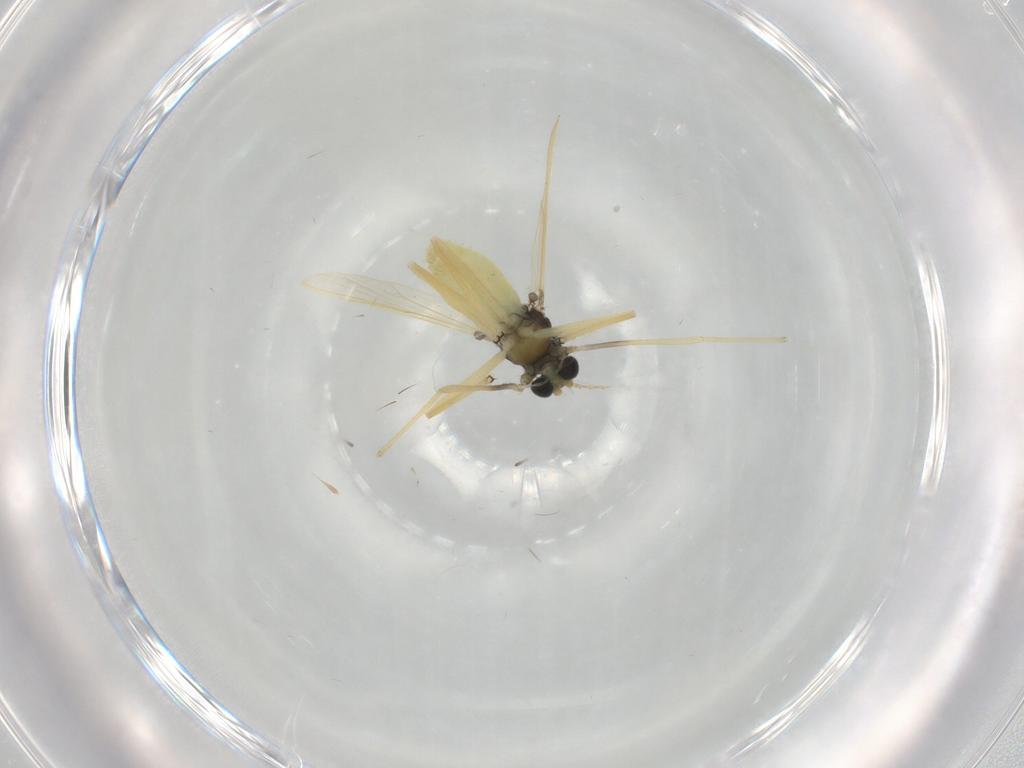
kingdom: Animalia
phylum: Arthropoda
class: Insecta
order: Diptera
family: Chironomidae
